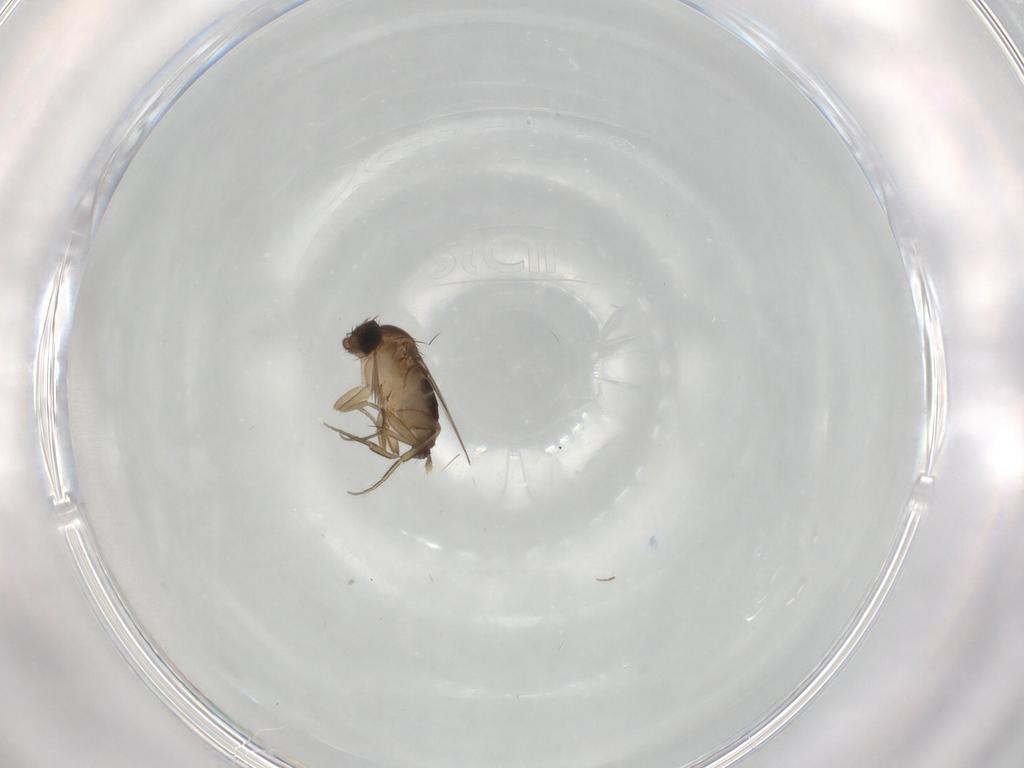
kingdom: Animalia
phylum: Arthropoda
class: Insecta
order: Diptera
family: Phoridae
